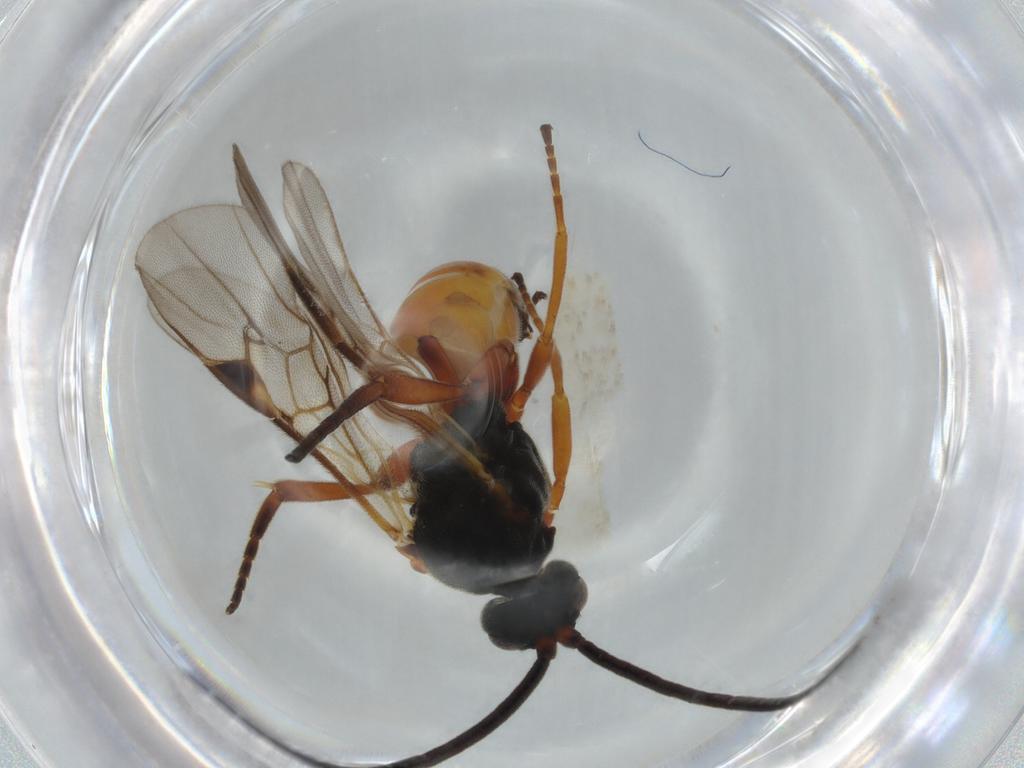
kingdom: Animalia
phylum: Arthropoda
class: Insecta
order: Hymenoptera
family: Braconidae
